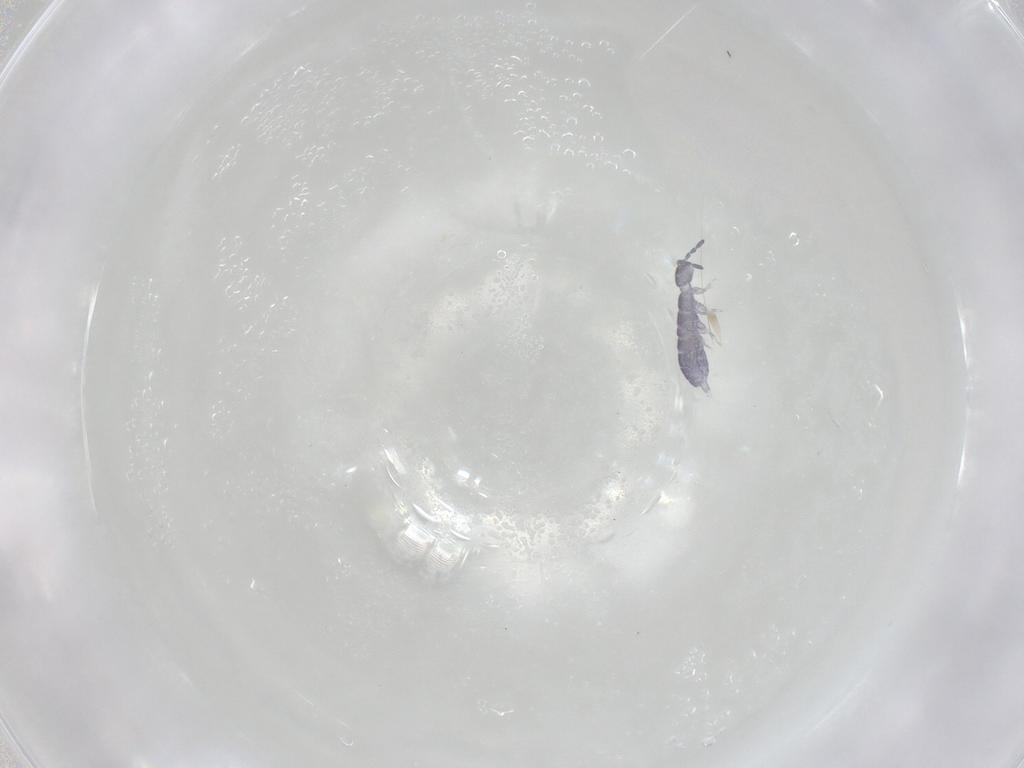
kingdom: Animalia
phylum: Arthropoda
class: Collembola
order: Entomobryomorpha
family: Isotomidae
